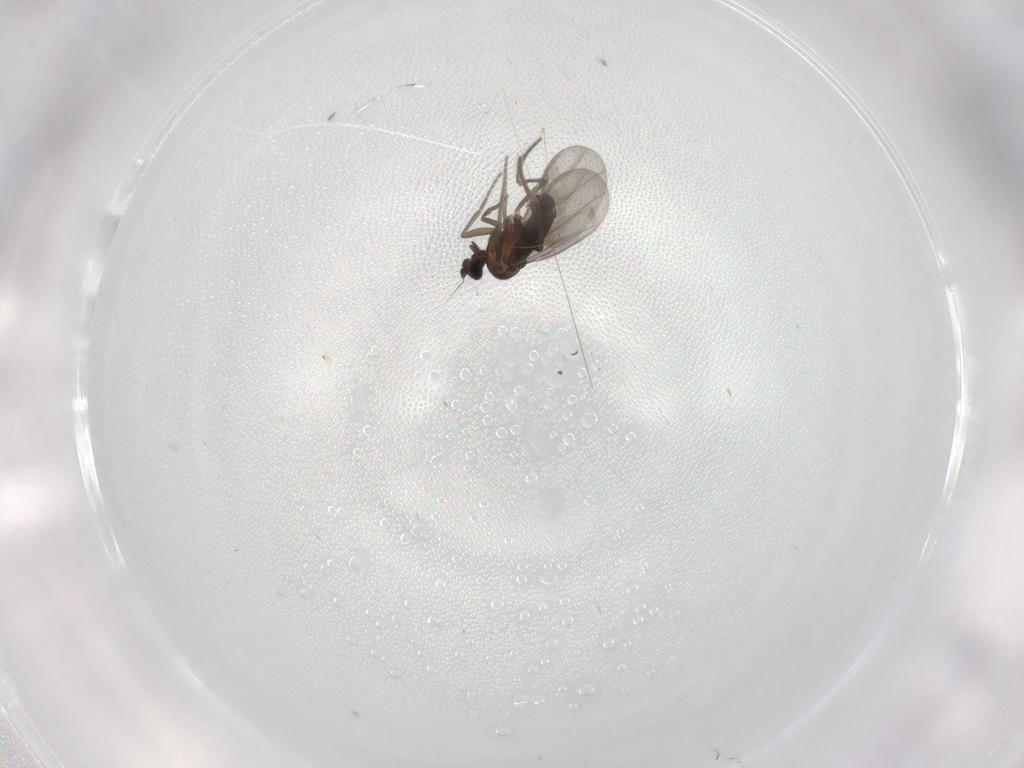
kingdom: Animalia
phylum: Arthropoda
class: Insecta
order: Diptera
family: Phoridae
